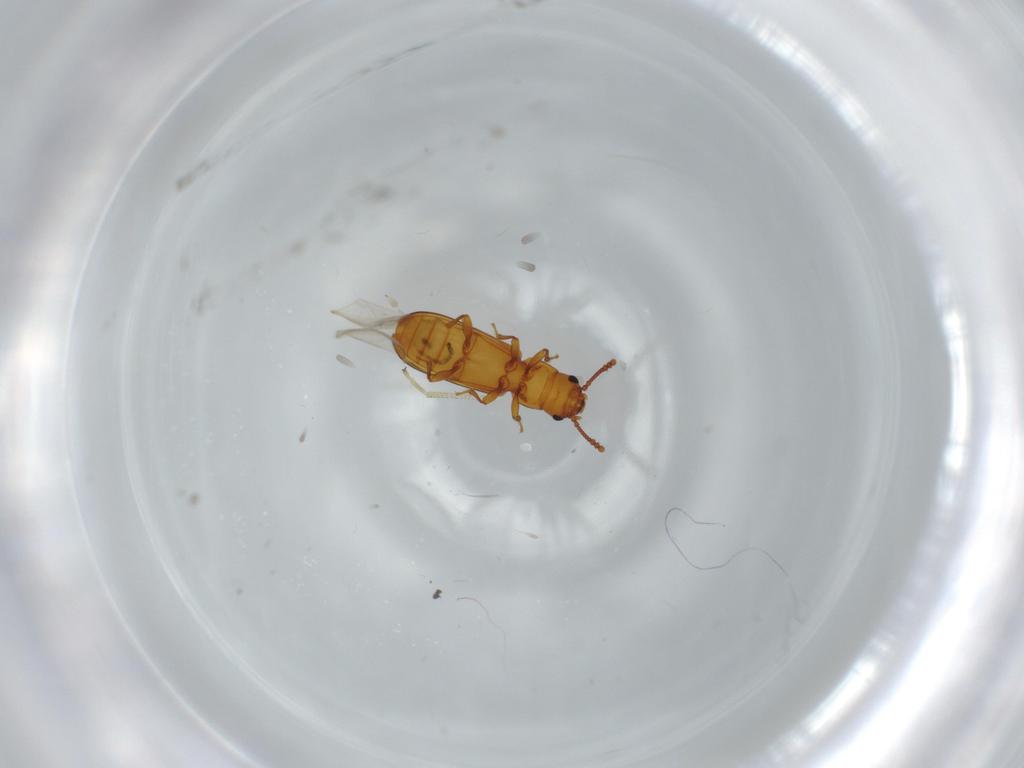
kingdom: Animalia
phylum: Arthropoda
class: Insecta
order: Coleoptera
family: Salpingidae
